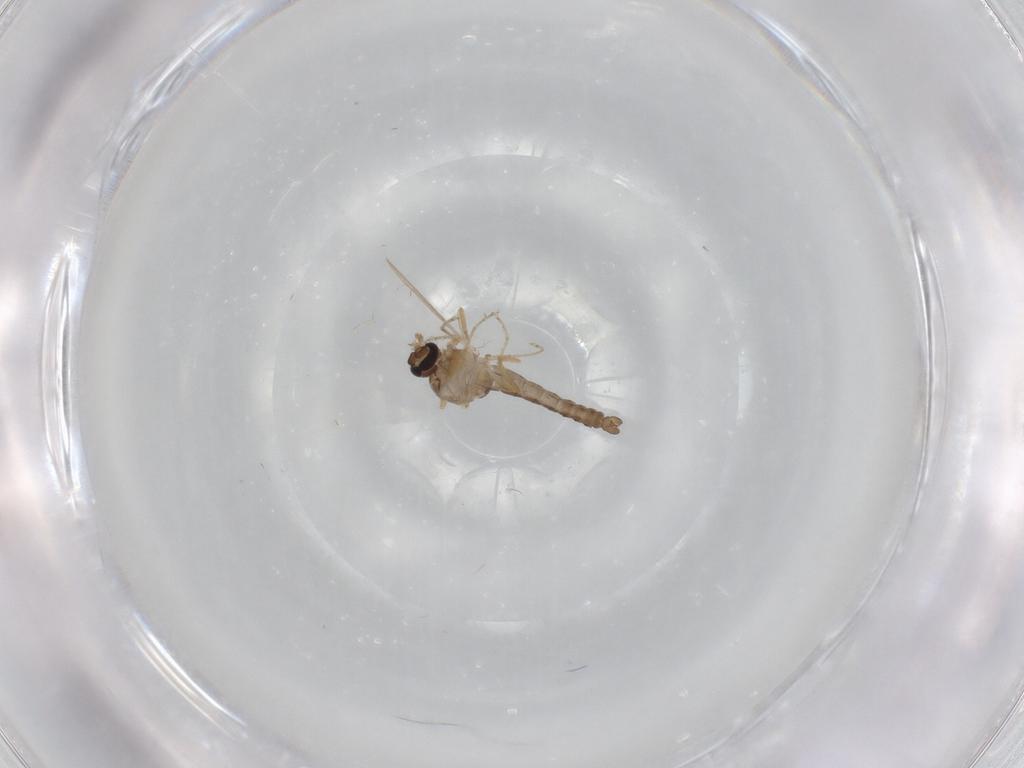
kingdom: Animalia
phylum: Arthropoda
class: Insecta
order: Diptera
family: Ceratopogonidae
